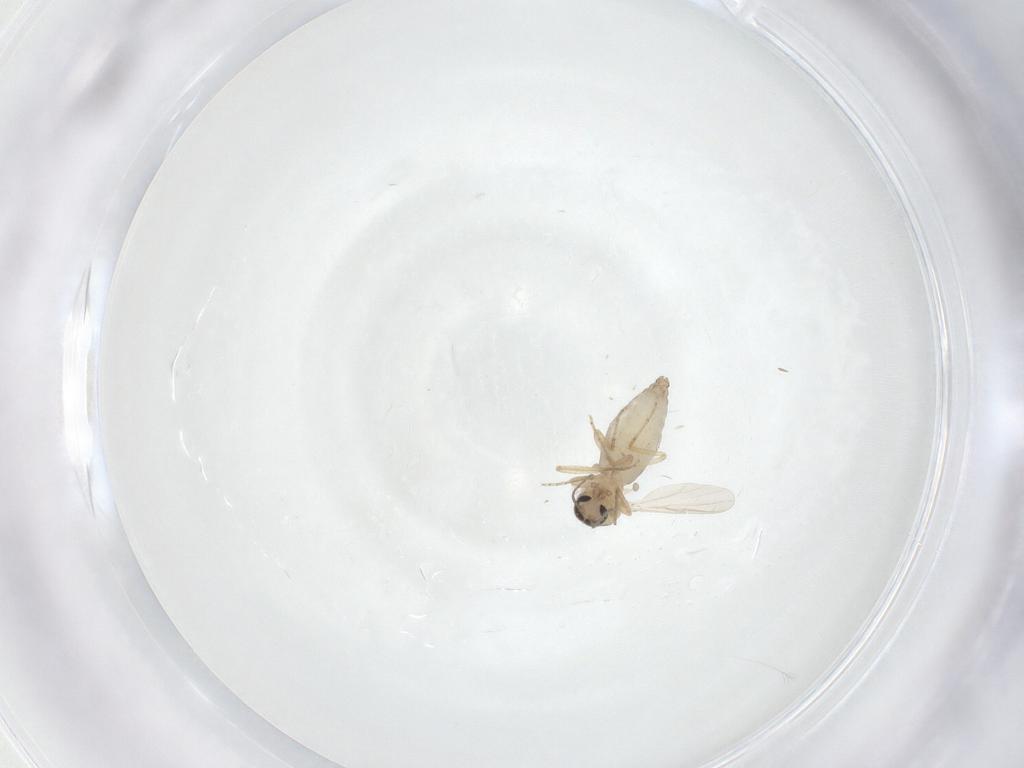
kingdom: Animalia
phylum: Arthropoda
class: Insecta
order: Diptera
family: Ceratopogonidae
